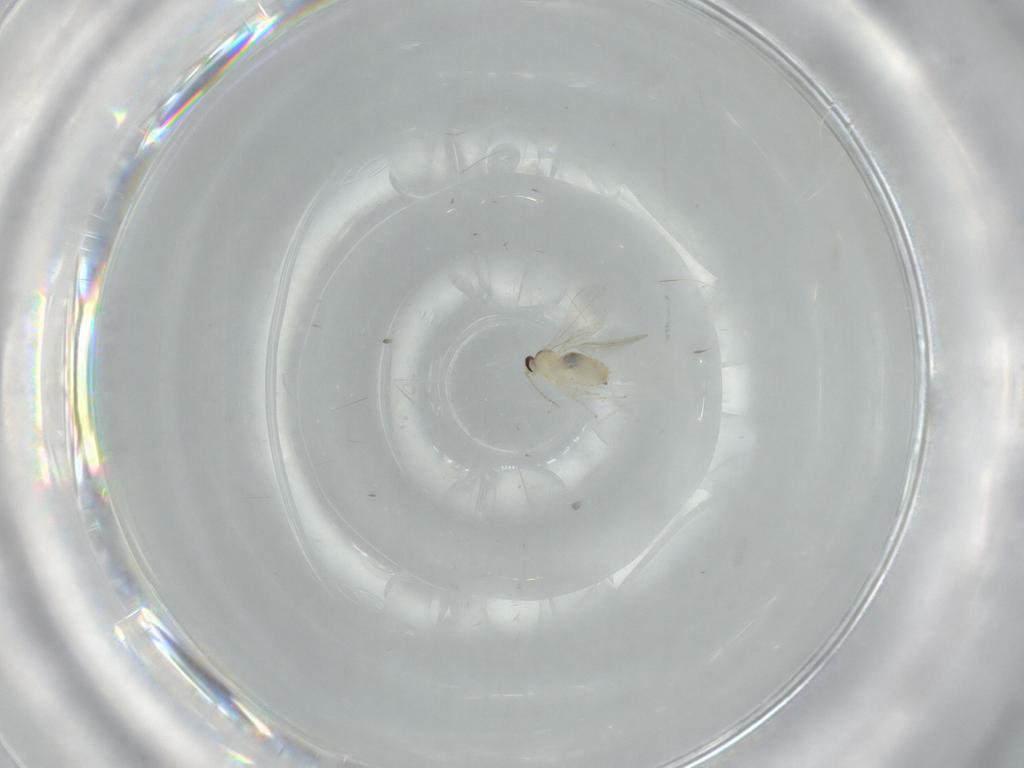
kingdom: Animalia
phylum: Arthropoda
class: Insecta
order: Diptera
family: Cecidomyiidae
